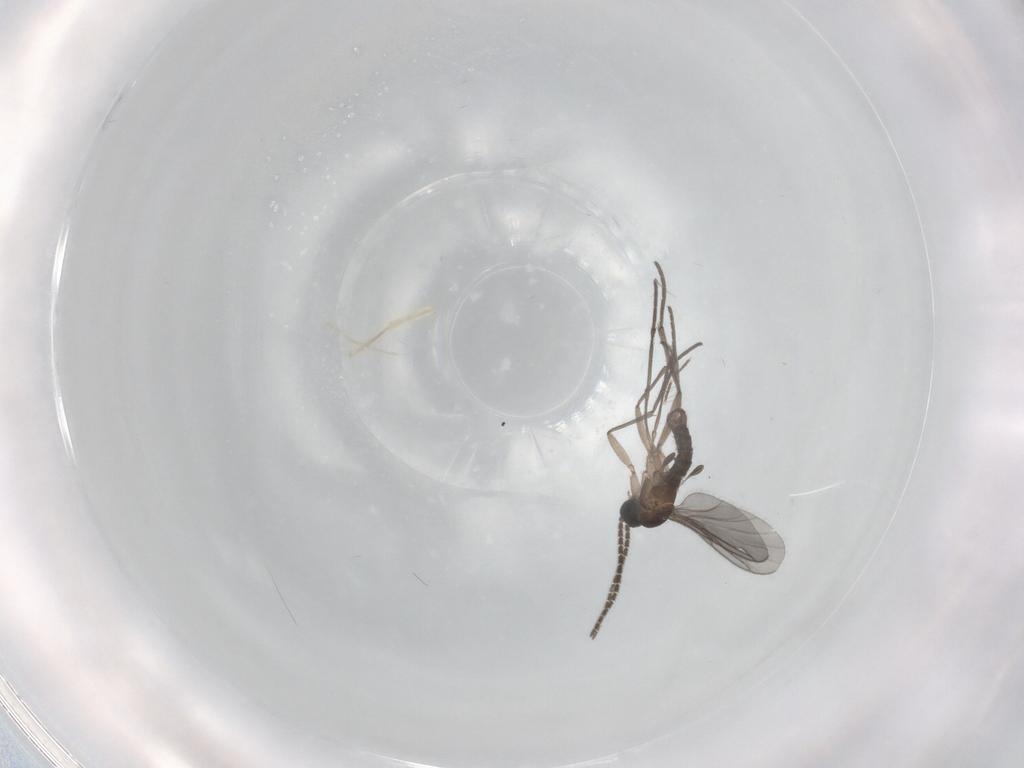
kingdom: Animalia
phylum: Arthropoda
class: Insecta
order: Diptera
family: Sciaridae
